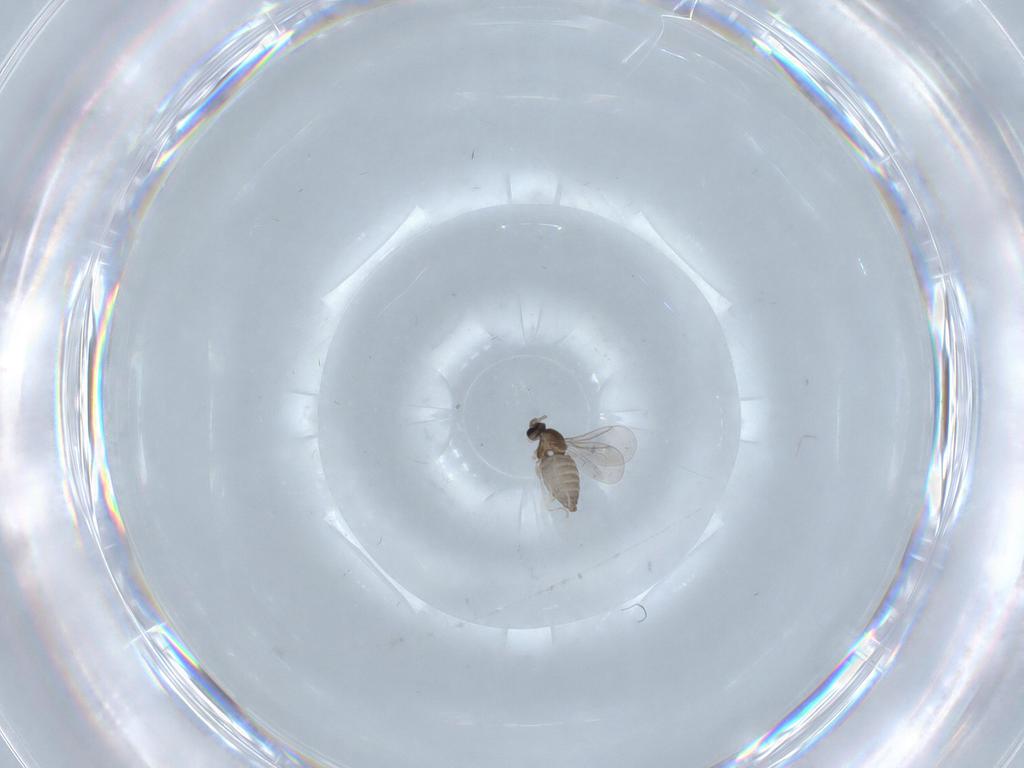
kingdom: Animalia
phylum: Arthropoda
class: Insecta
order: Diptera
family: Cecidomyiidae
